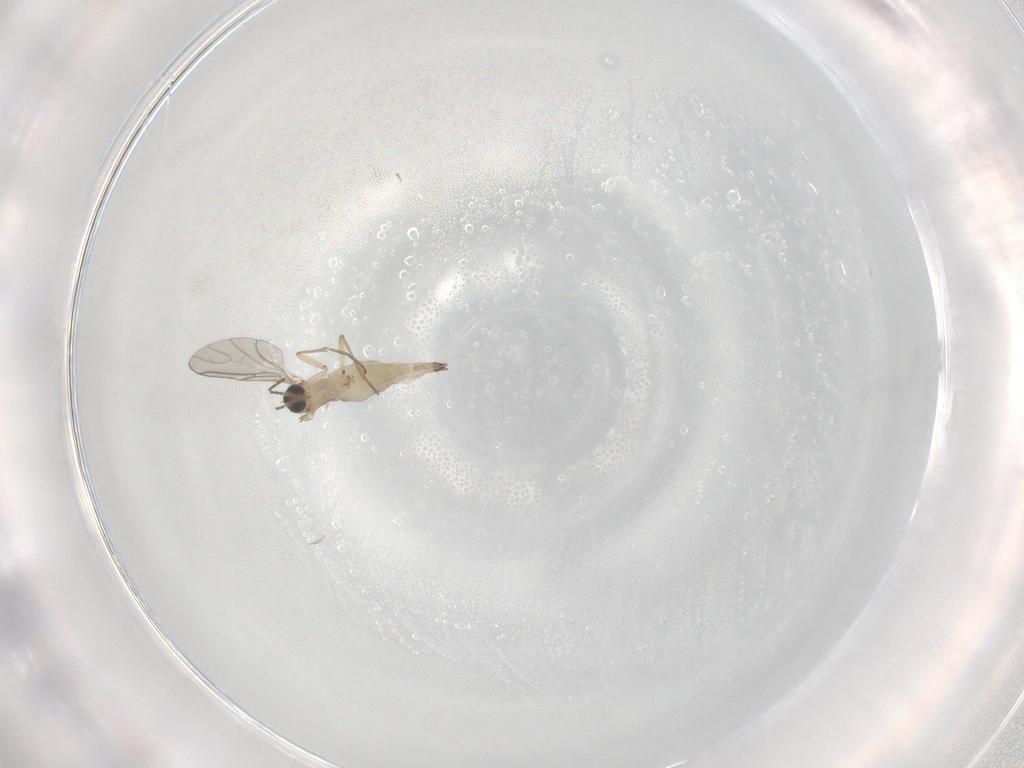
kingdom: Animalia
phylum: Arthropoda
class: Insecta
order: Diptera
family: Sciaridae
